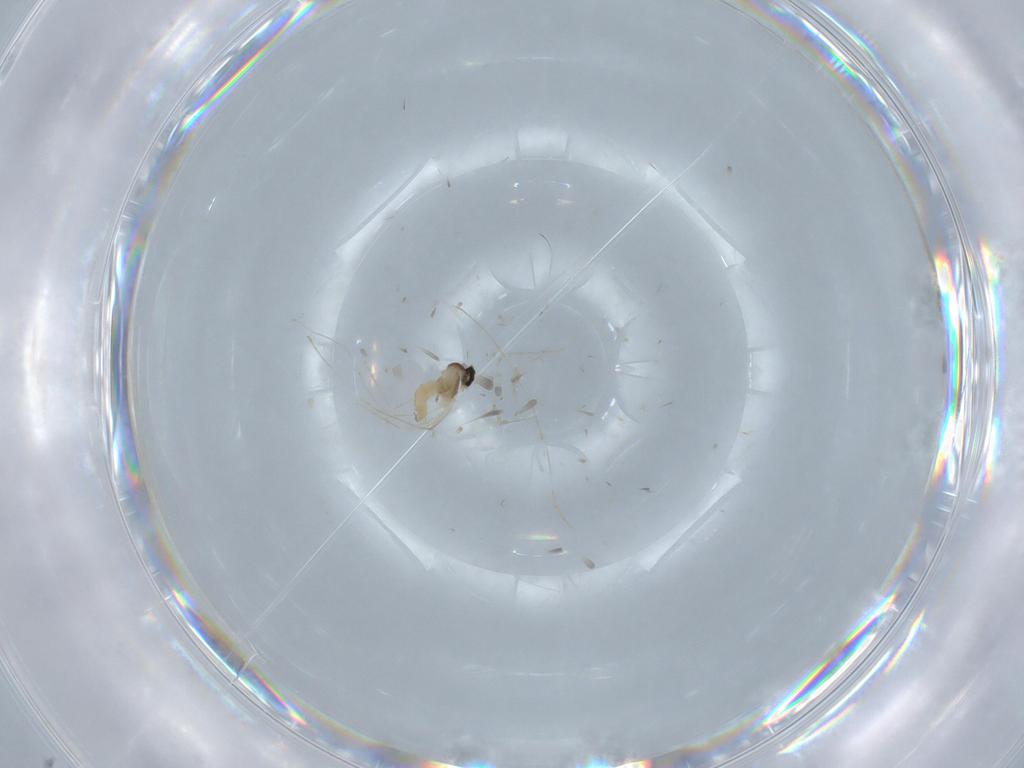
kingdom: Animalia
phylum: Arthropoda
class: Insecta
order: Diptera
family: Cecidomyiidae
